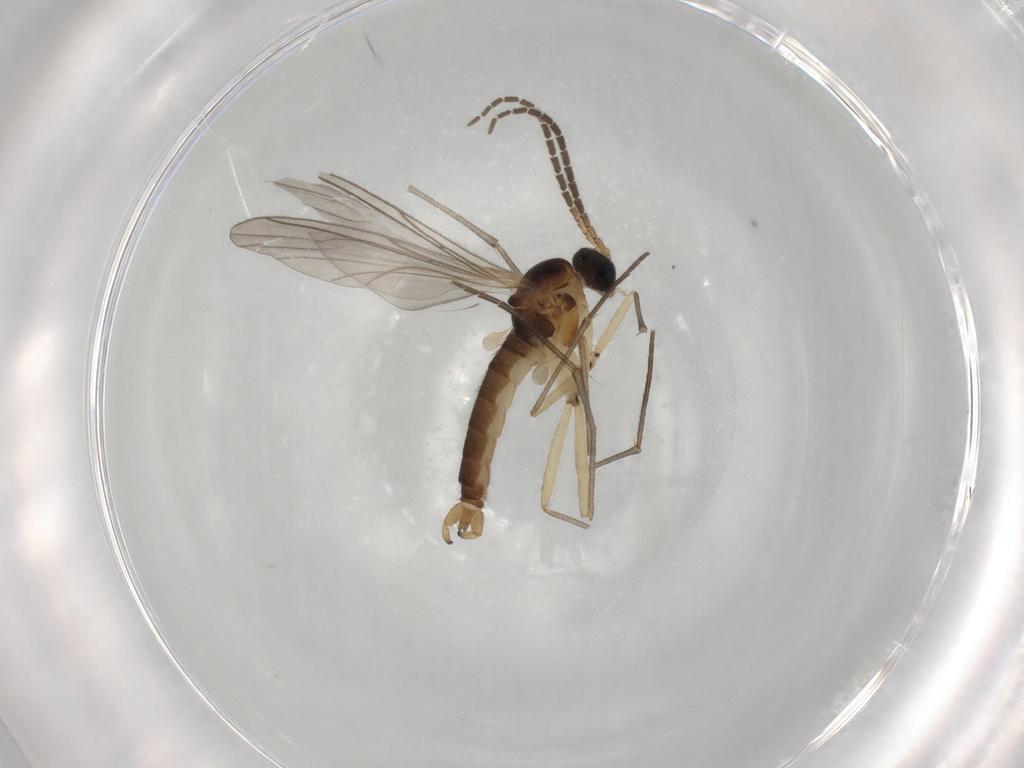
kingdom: Animalia
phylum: Arthropoda
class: Insecta
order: Diptera
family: Sciaridae
